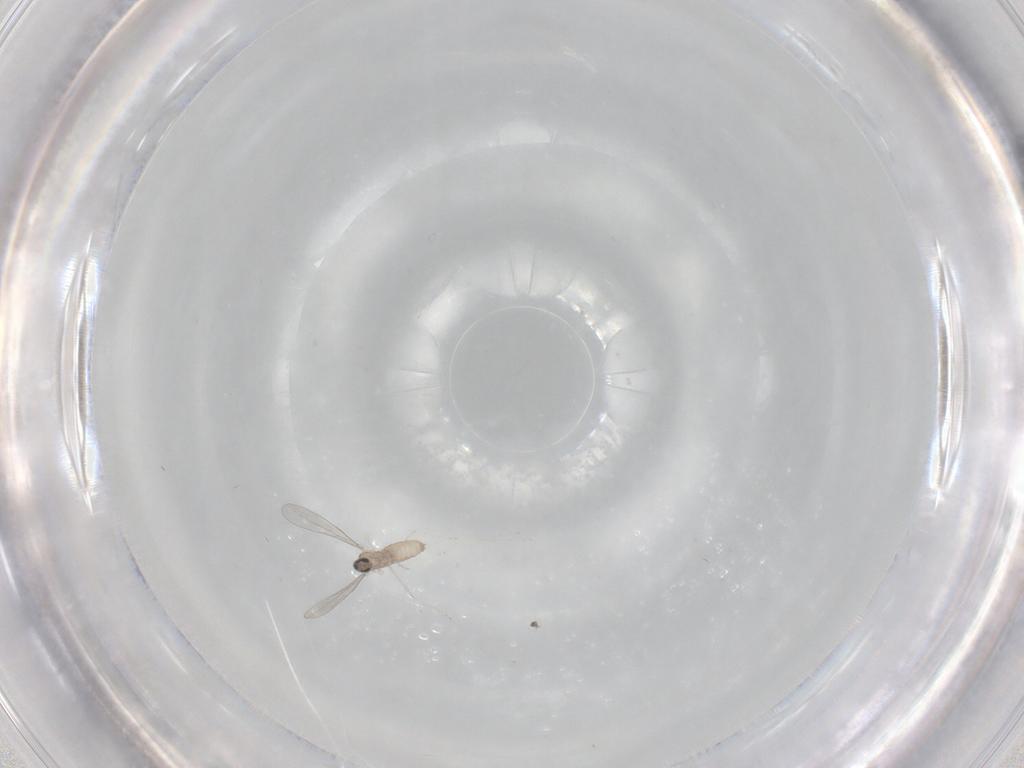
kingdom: Animalia
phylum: Arthropoda
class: Insecta
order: Diptera
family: Cecidomyiidae
